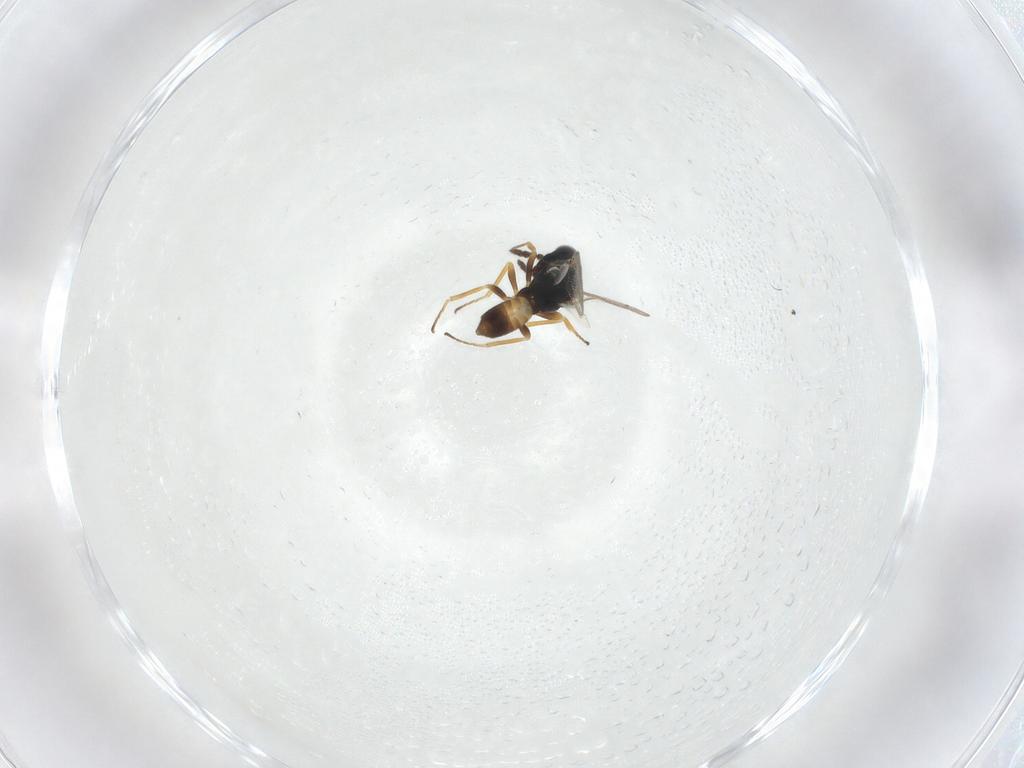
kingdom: Animalia
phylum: Arthropoda
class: Insecta
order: Hymenoptera
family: Pteromalidae
